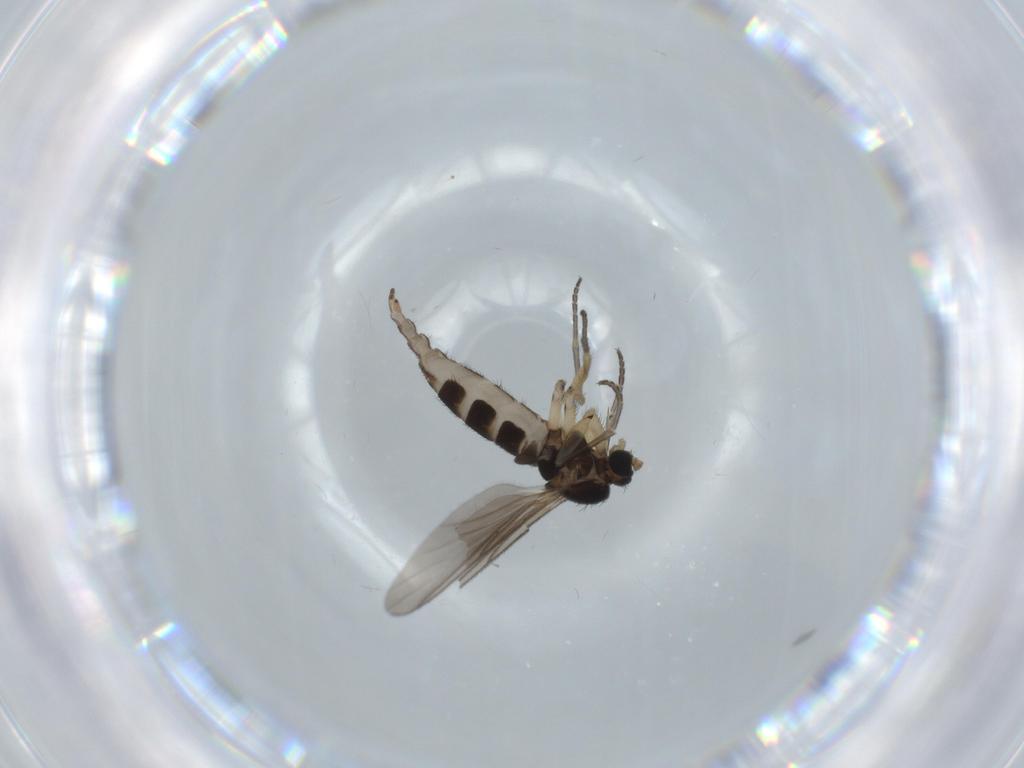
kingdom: Animalia
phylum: Arthropoda
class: Insecta
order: Diptera
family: Sciaridae
